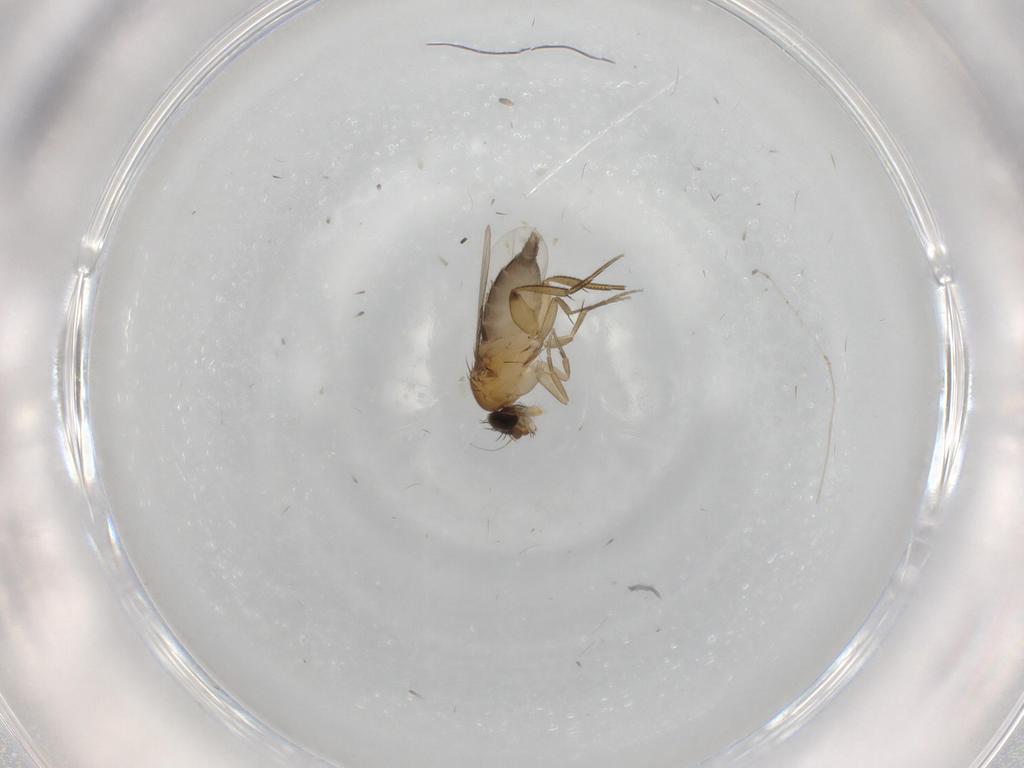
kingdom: Animalia
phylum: Arthropoda
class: Insecta
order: Diptera
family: Phoridae
